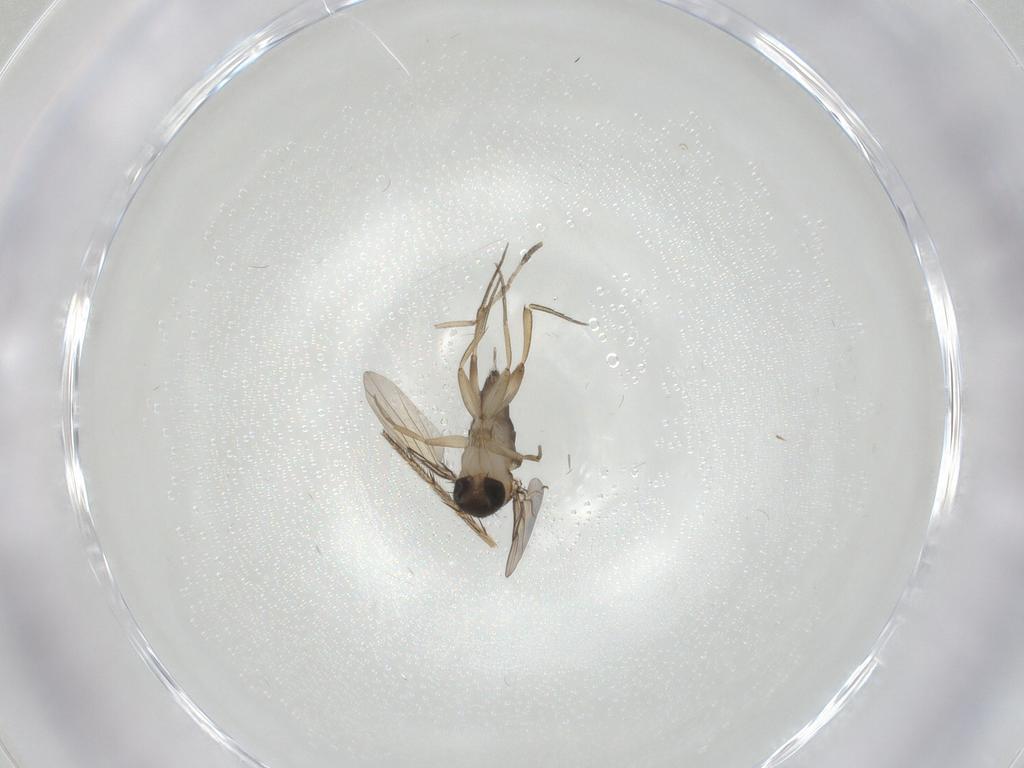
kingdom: Animalia
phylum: Arthropoda
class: Insecta
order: Diptera
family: Phoridae
